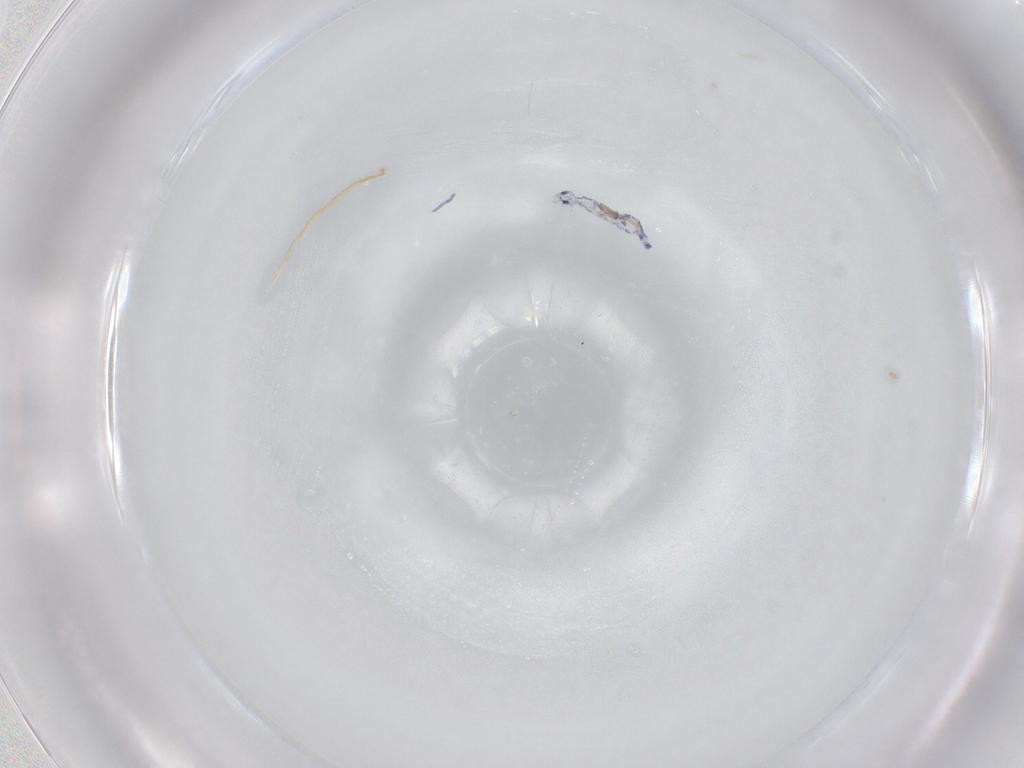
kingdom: Animalia
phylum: Arthropoda
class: Collembola
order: Entomobryomorpha
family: Entomobryidae
